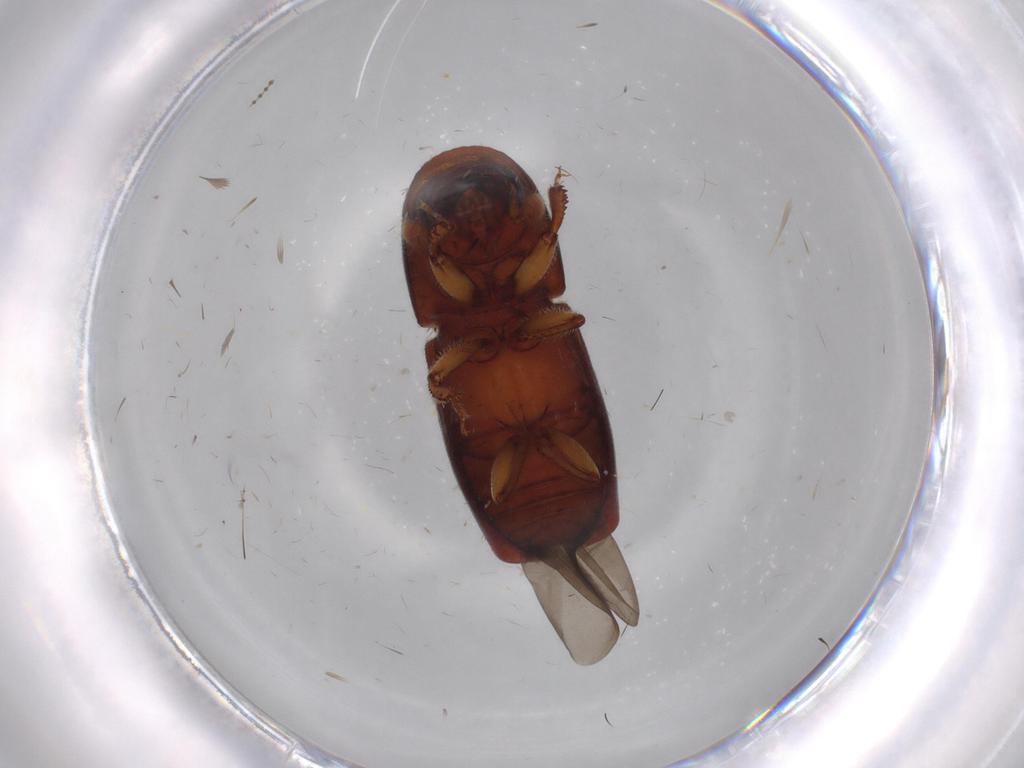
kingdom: Animalia
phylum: Arthropoda
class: Insecta
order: Coleoptera
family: Curculionidae
